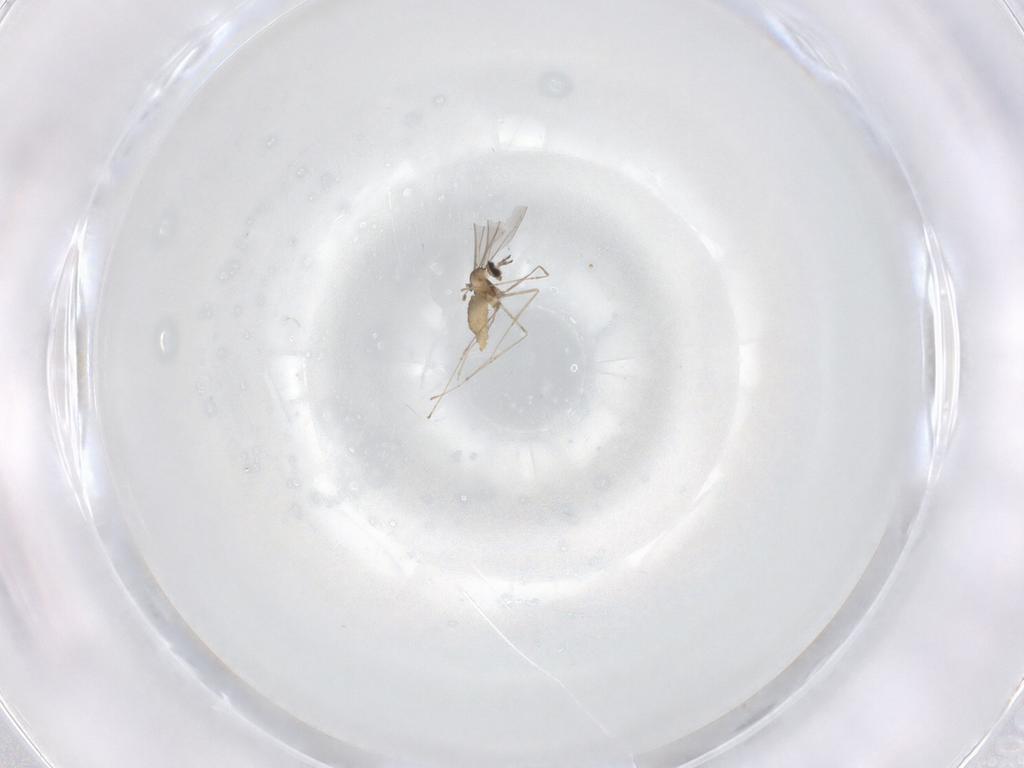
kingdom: Animalia
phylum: Arthropoda
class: Insecta
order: Diptera
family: Cecidomyiidae
